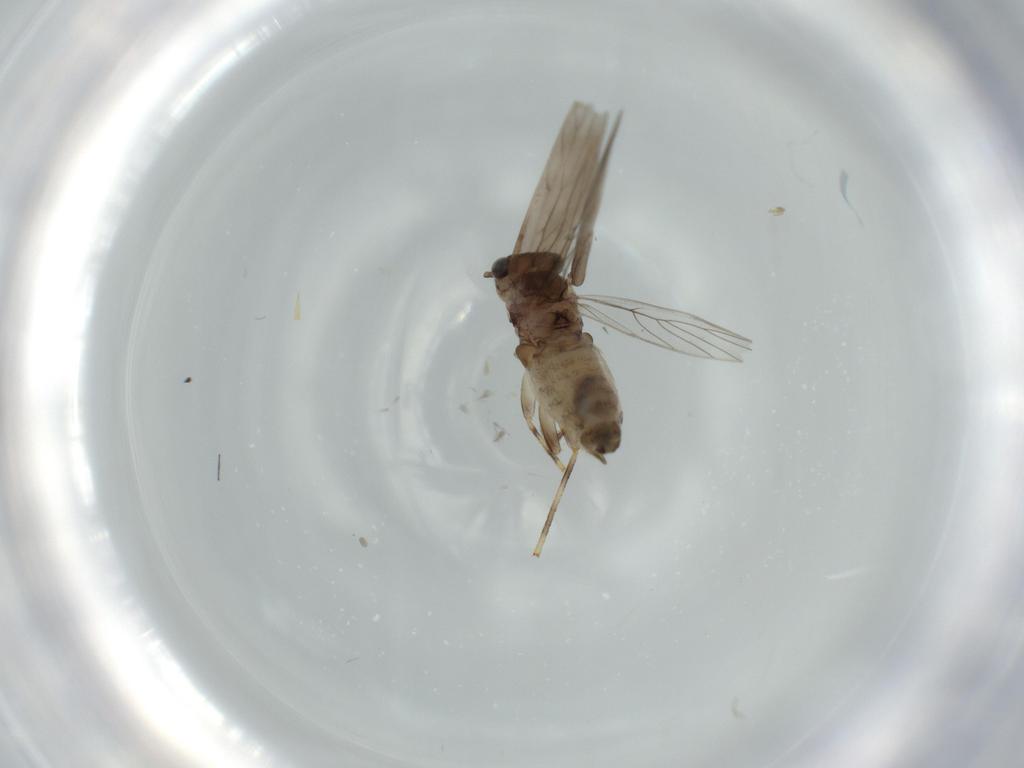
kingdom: Animalia
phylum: Arthropoda
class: Insecta
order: Psocodea
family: Lepidopsocidae
